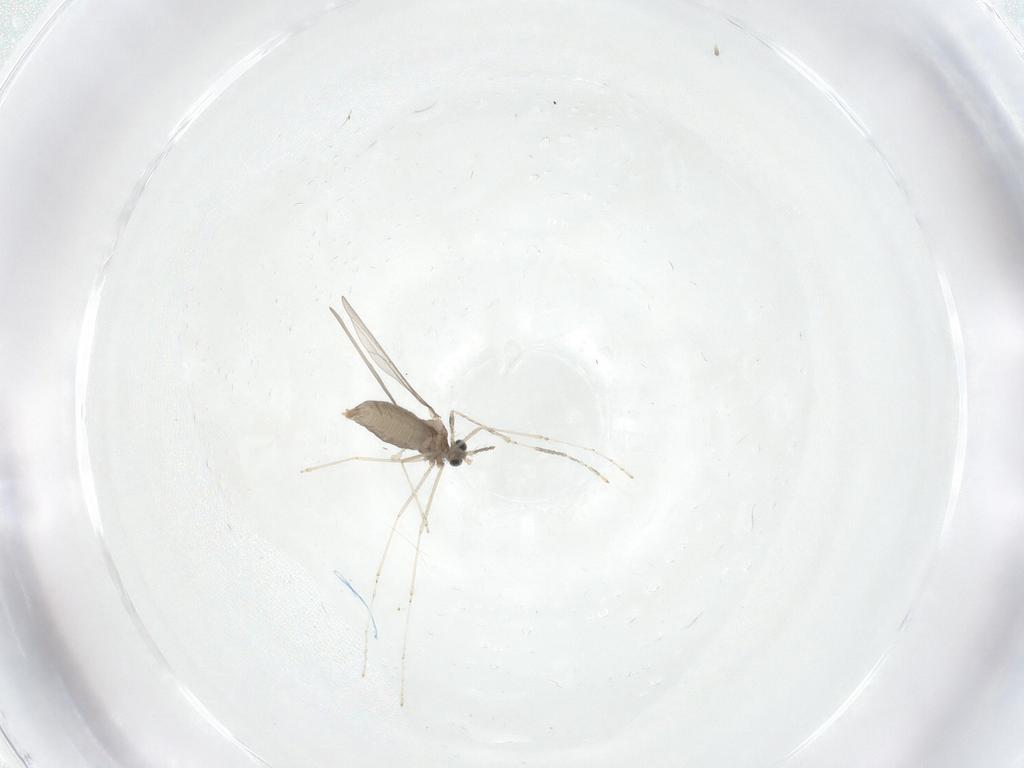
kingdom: Animalia
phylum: Arthropoda
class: Insecta
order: Diptera
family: Cecidomyiidae
